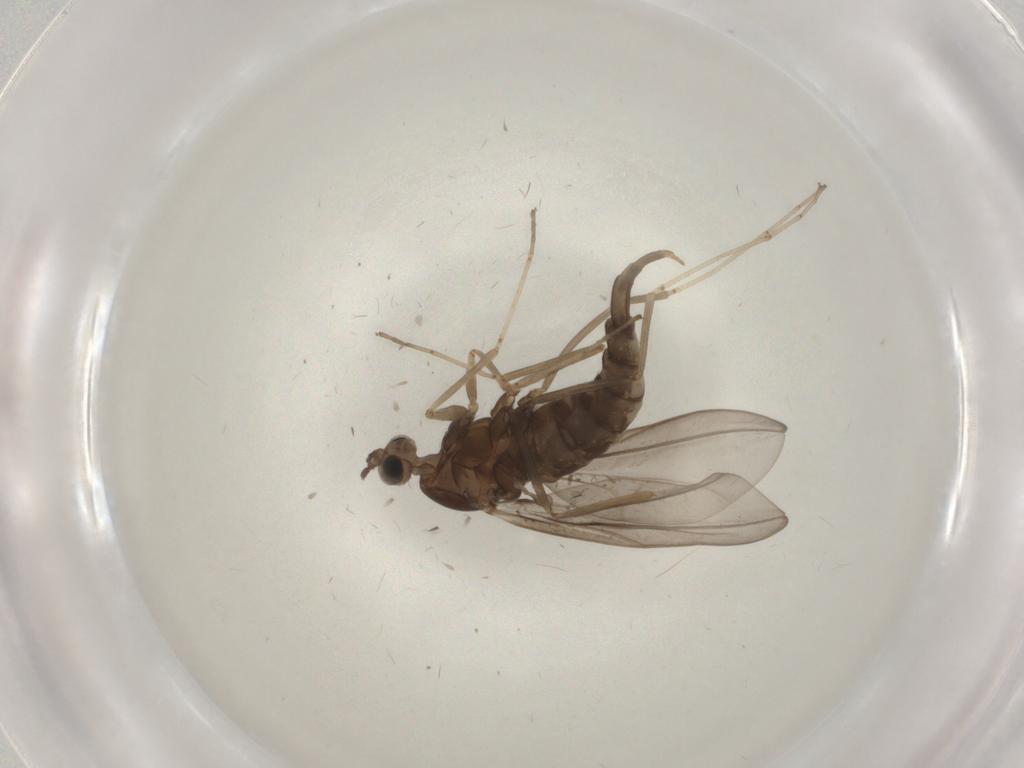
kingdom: Animalia
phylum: Arthropoda
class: Insecta
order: Diptera
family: Cecidomyiidae
